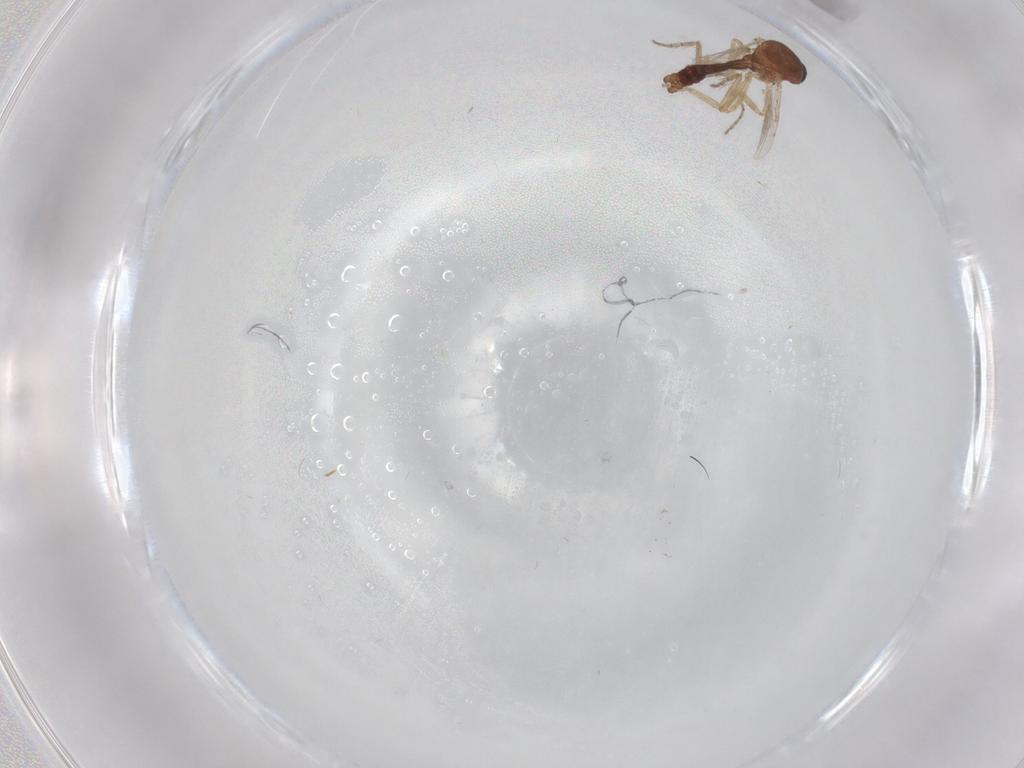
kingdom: Animalia
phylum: Arthropoda
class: Insecta
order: Diptera
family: Ceratopogonidae
